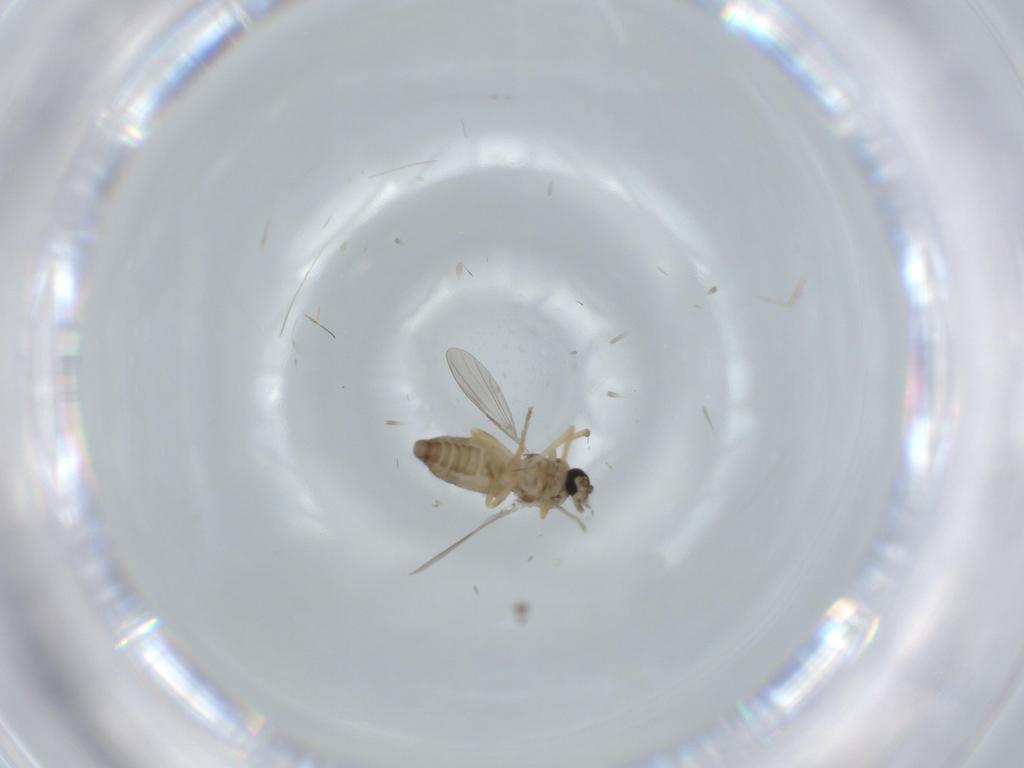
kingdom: Animalia
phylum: Arthropoda
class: Insecta
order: Diptera
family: Ceratopogonidae
